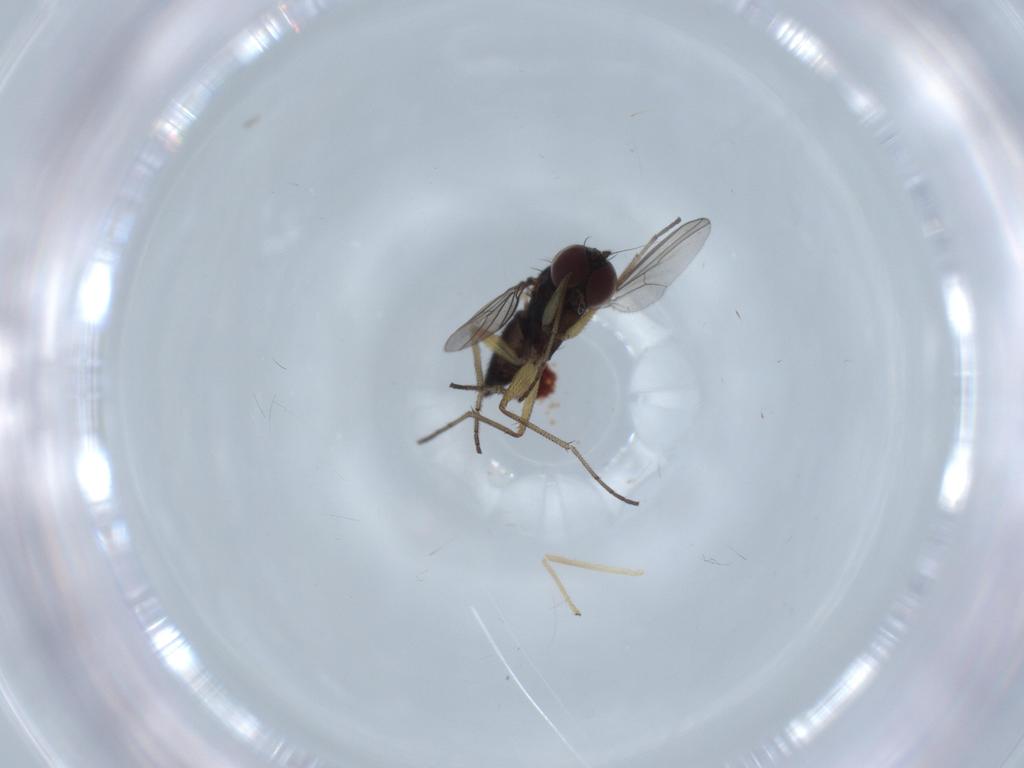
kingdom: Animalia
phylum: Arthropoda
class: Insecta
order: Diptera
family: Dolichopodidae
